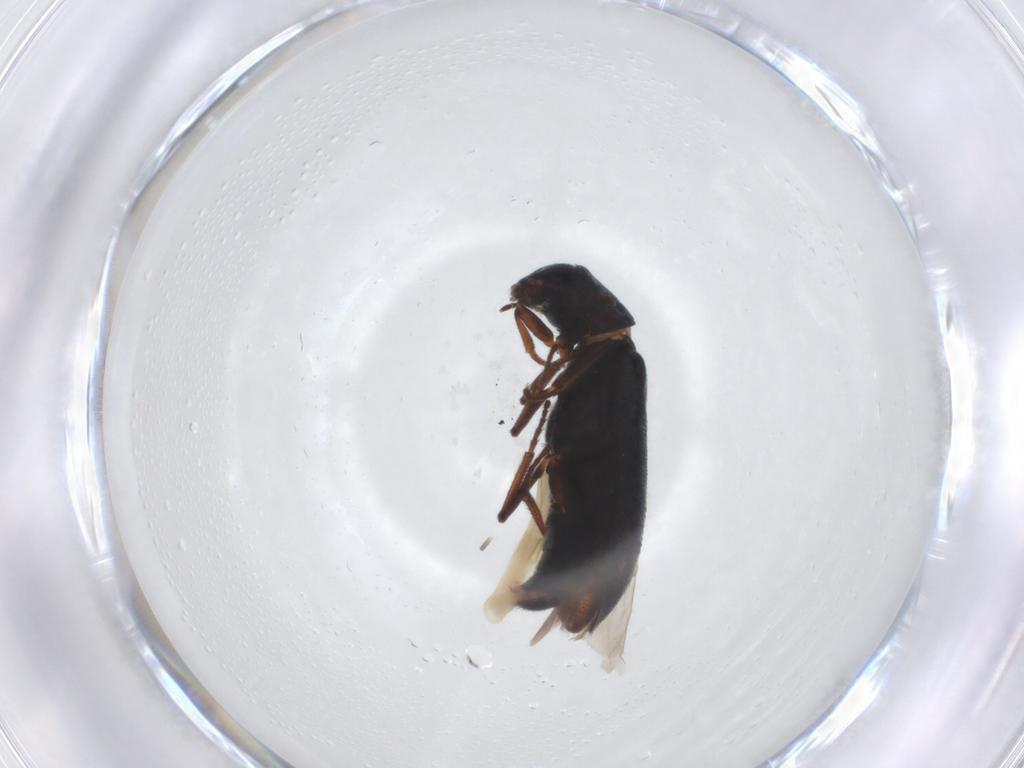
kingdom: Animalia
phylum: Arthropoda
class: Insecta
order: Coleoptera
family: Melyridae
